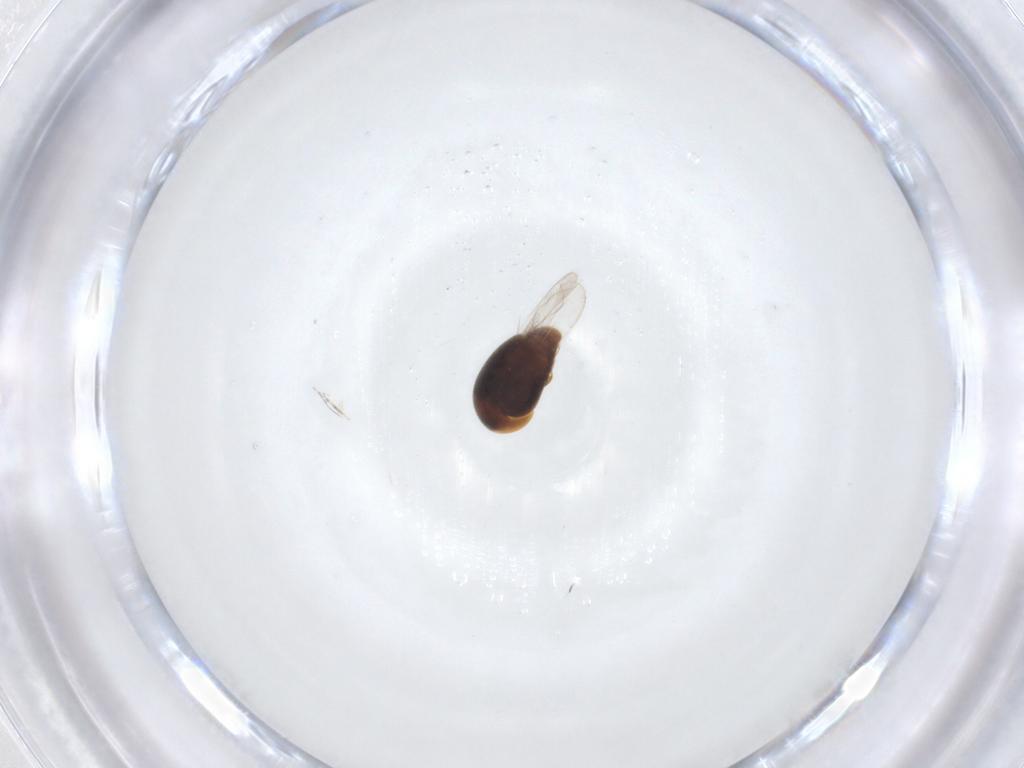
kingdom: Animalia
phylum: Arthropoda
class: Insecta
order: Coleoptera
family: Corylophidae
